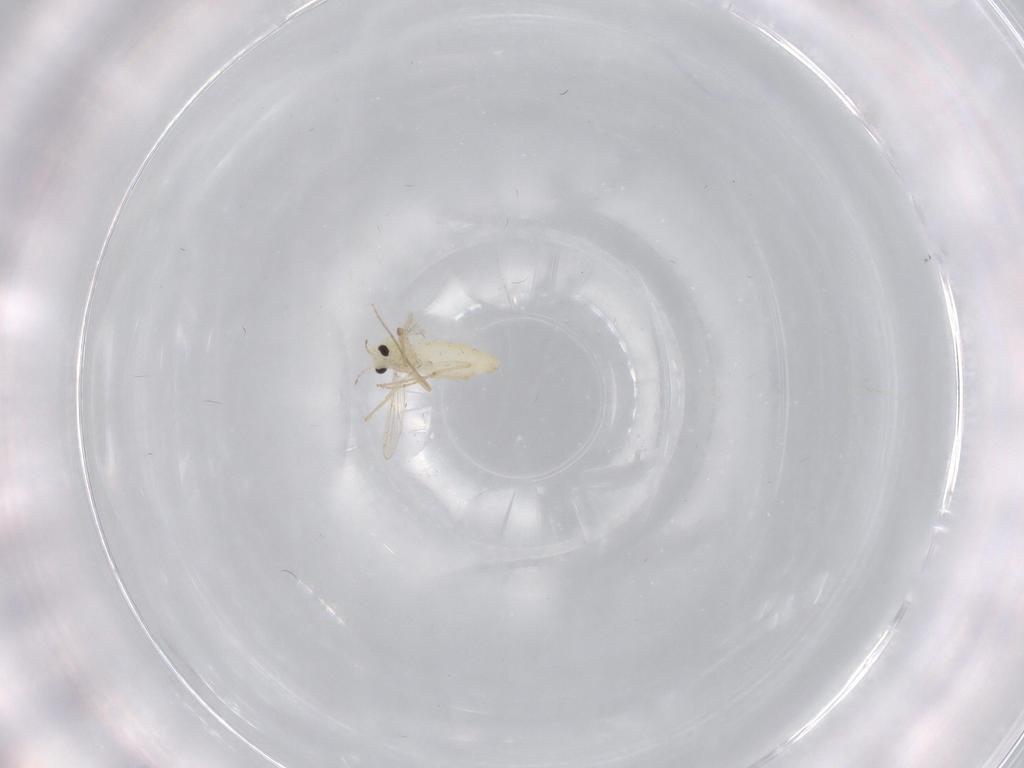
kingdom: Animalia
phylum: Arthropoda
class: Insecta
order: Diptera
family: Chironomidae
